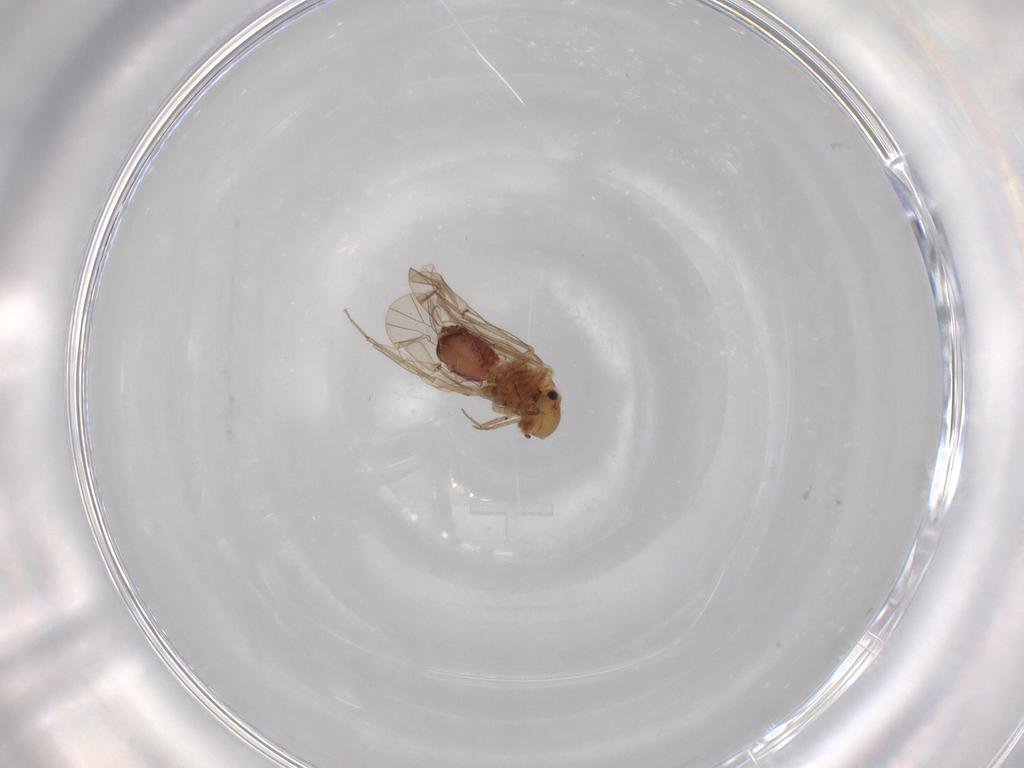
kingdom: Animalia
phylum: Arthropoda
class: Insecta
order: Psocodea
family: Lachesillidae
